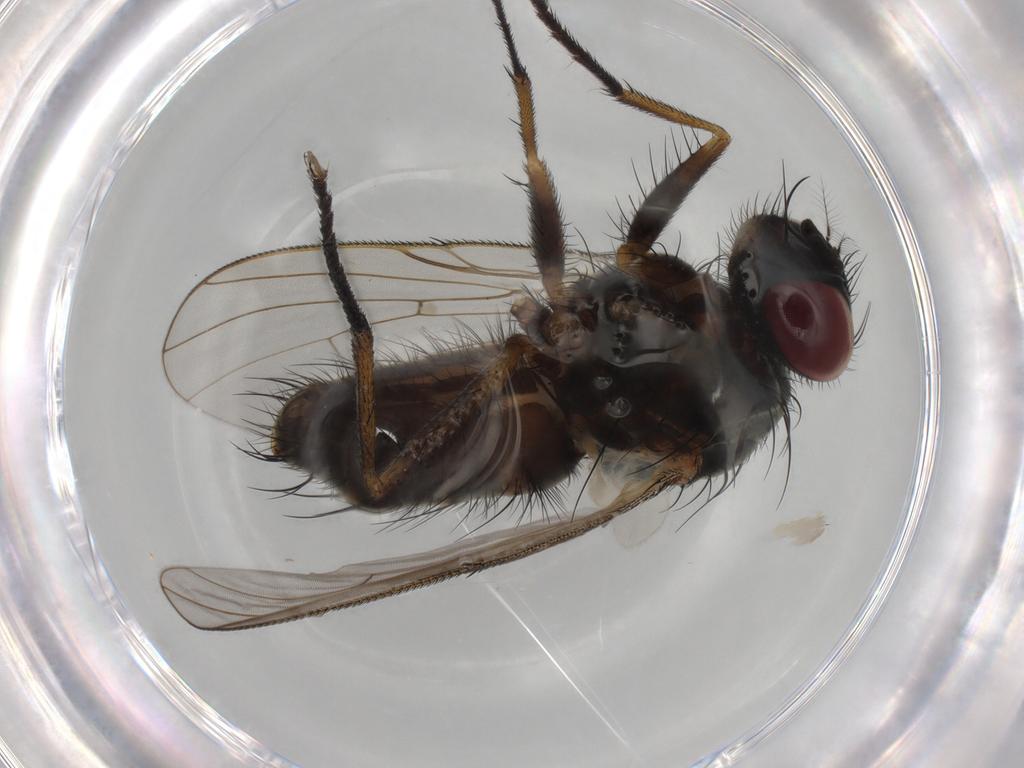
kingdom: Animalia
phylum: Arthropoda
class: Insecta
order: Diptera
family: Muscidae
